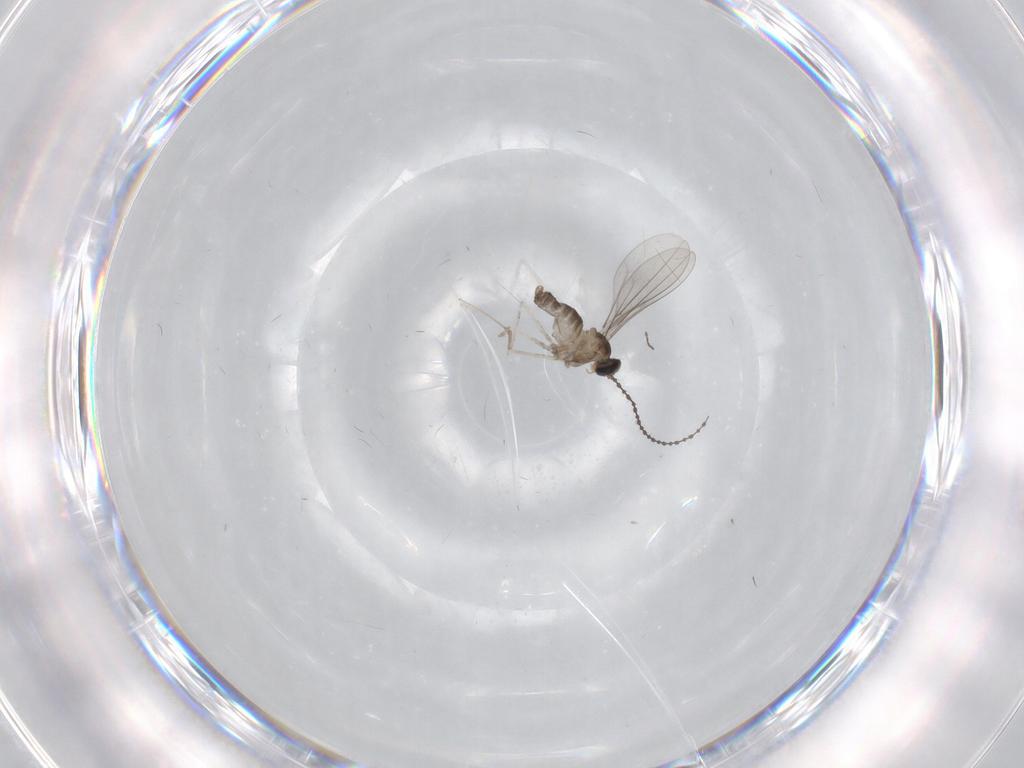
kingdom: Animalia
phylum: Arthropoda
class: Insecta
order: Diptera
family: Cecidomyiidae
